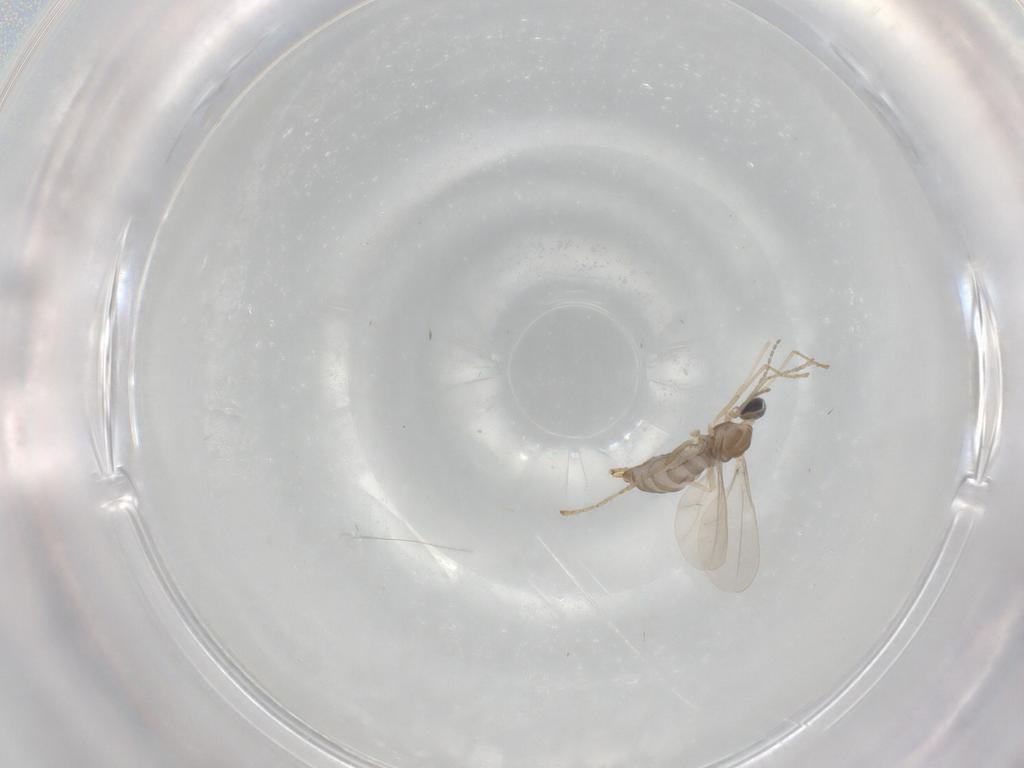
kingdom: Animalia
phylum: Arthropoda
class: Insecta
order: Diptera
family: Cecidomyiidae
